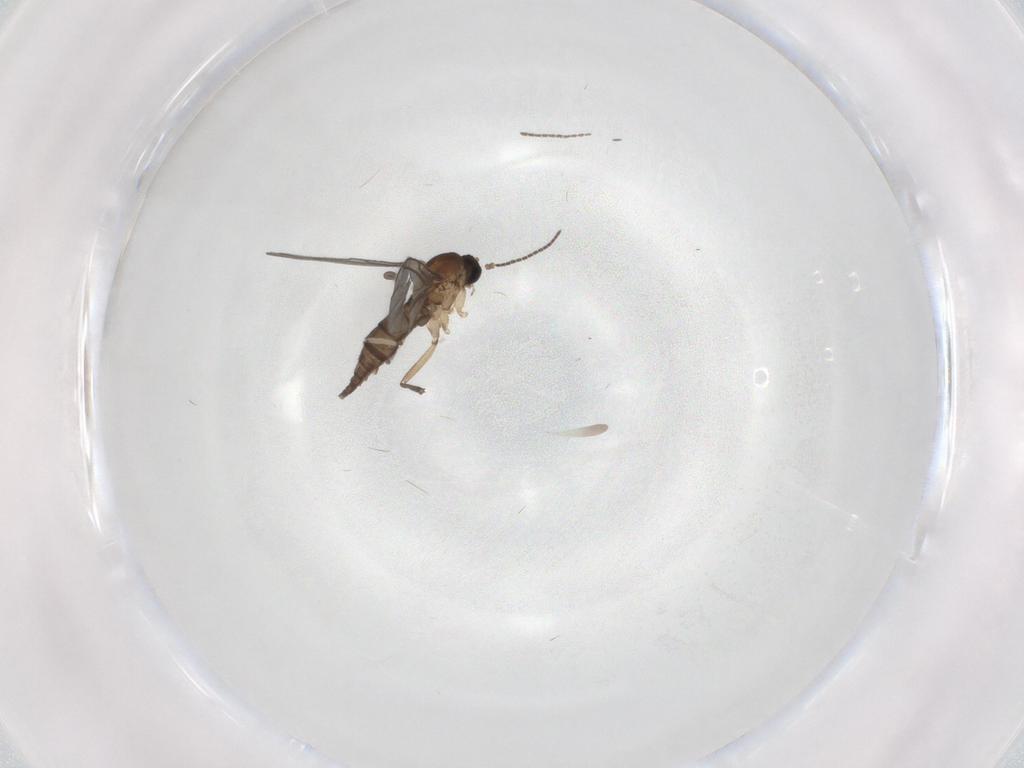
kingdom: Animalia
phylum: Arthropoda
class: Insecta
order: Diptera
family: Sciaridae
